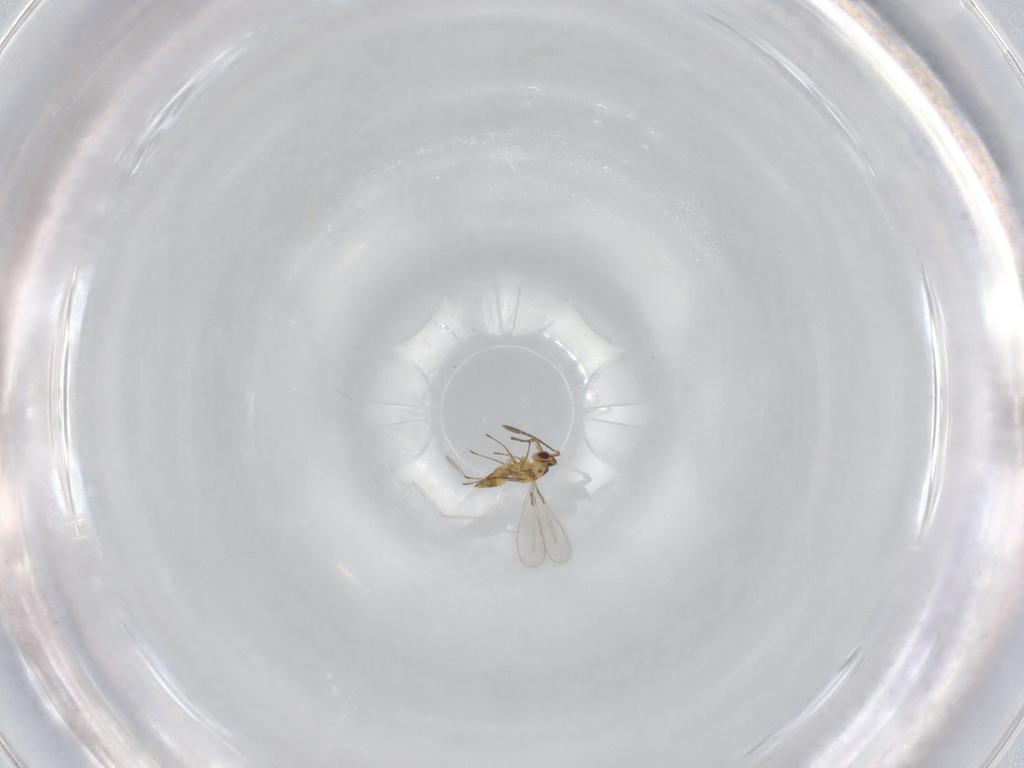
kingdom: Animalia
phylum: Arthropoda
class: Insecta
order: Hymenoptera
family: Mymaridae
